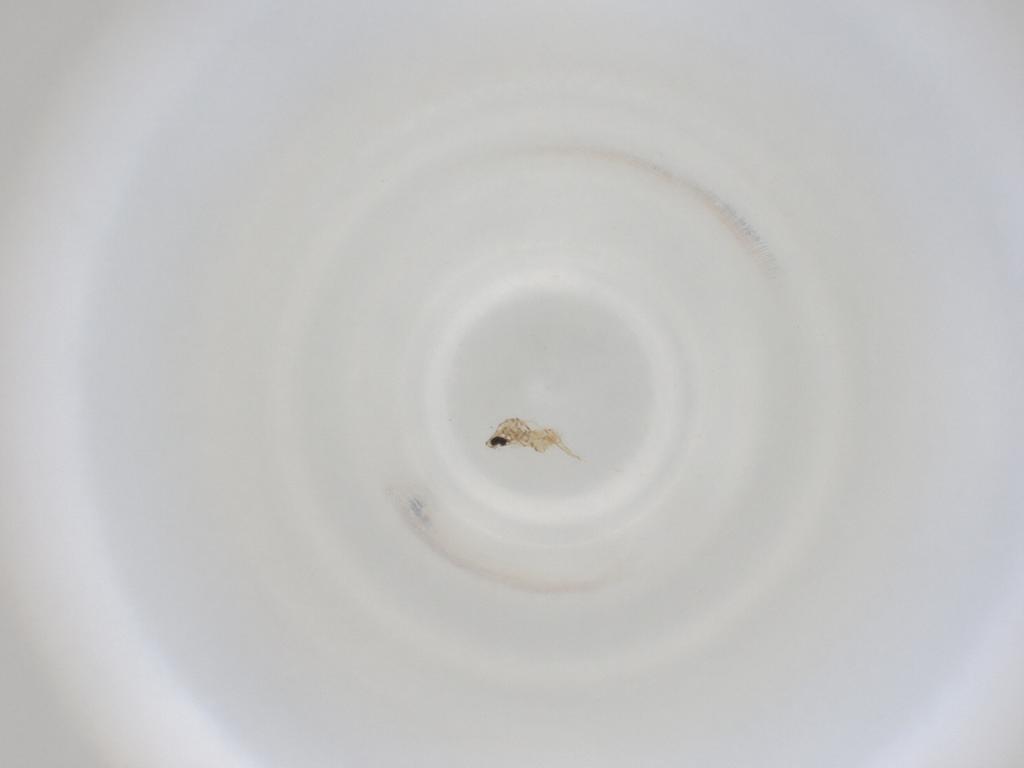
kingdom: Animalia
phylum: Arthropoda
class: Insecta
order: Diptera
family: Cecidomyiidae
